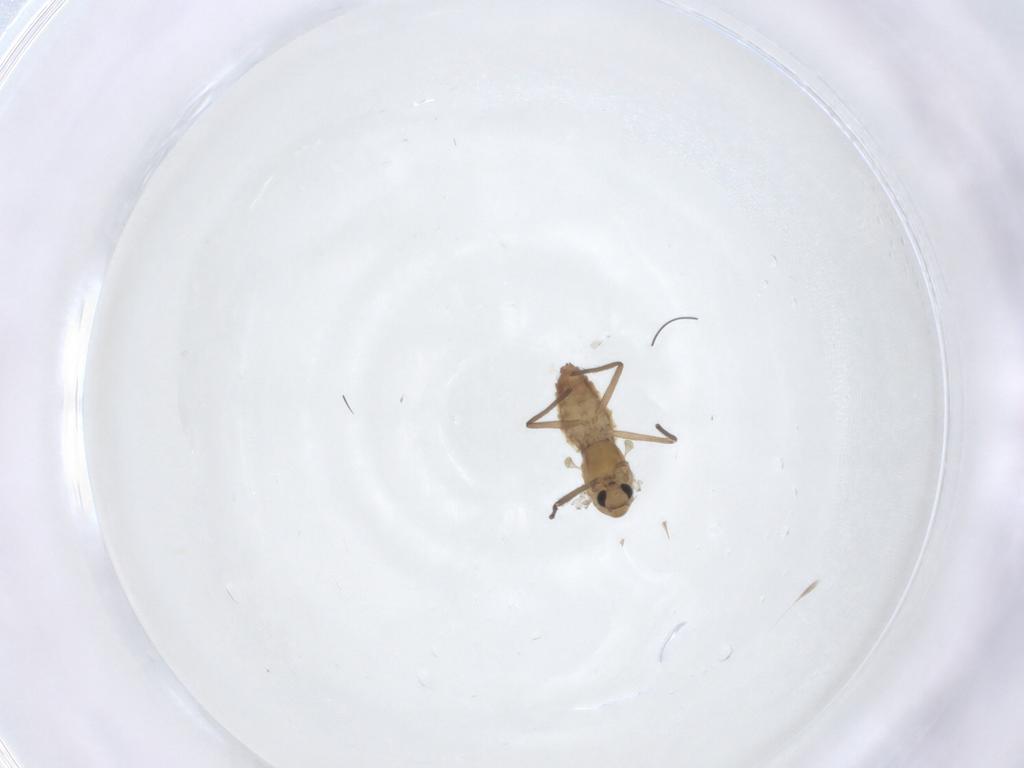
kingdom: Animalia
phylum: Arthropoda
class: Insecta
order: Diptera
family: Chironomidae
